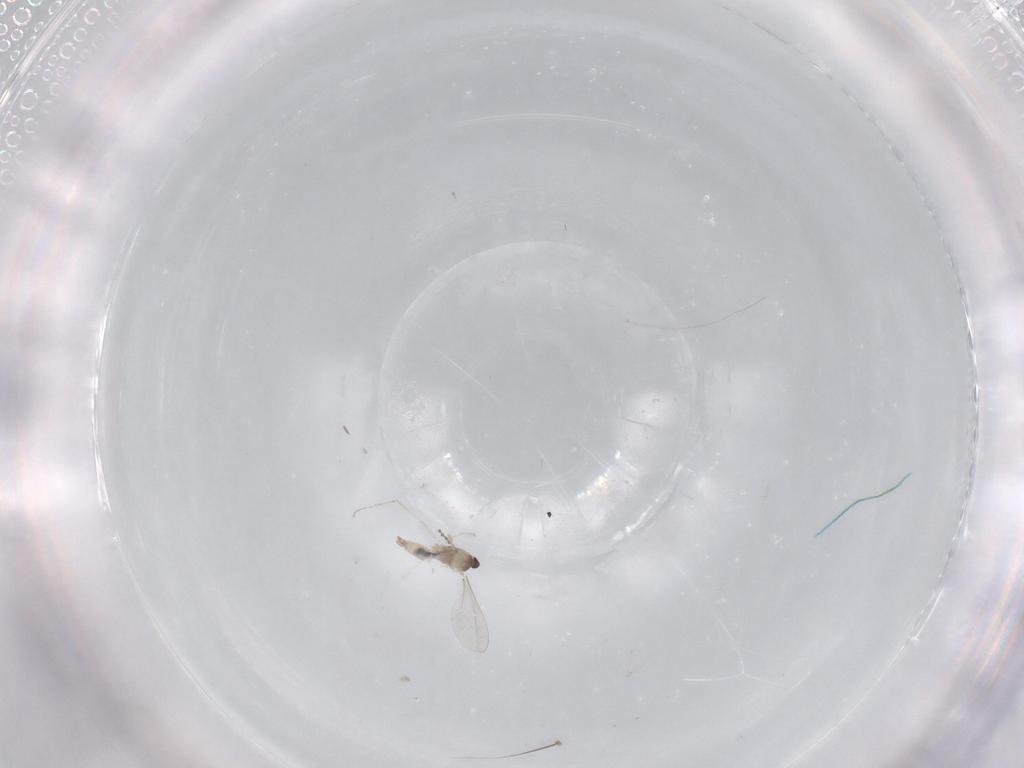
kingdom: Animalia
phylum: Arthropoda
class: Insecta
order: Diptera
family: Cecidomyiidae
